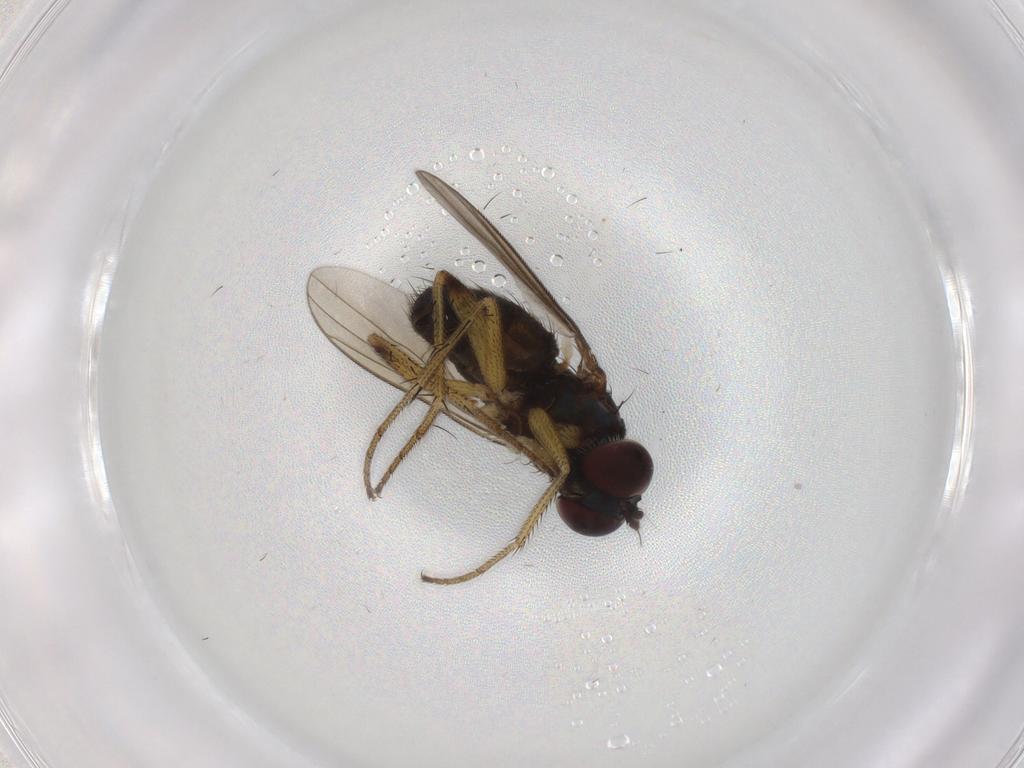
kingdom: Animalia
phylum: Arthropoda
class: Insecta
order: Diptera
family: Dolichopodidae
